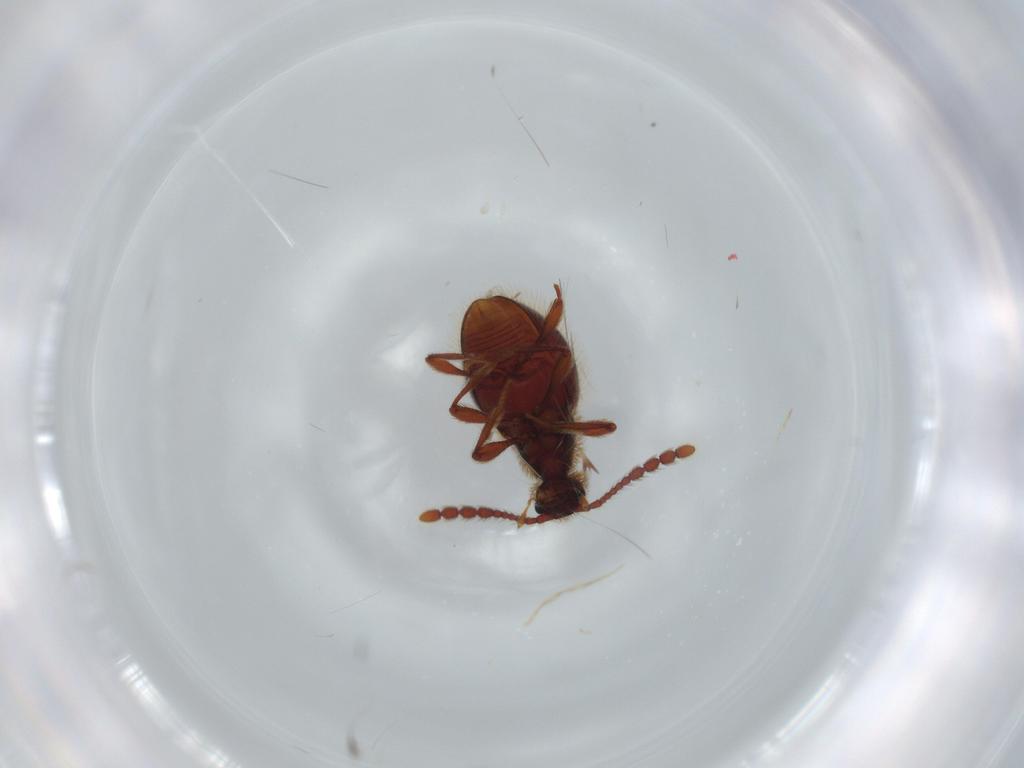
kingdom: Animalia
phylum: Arthropoda
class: Insecta
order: Coleoptera
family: Staphylinidae
